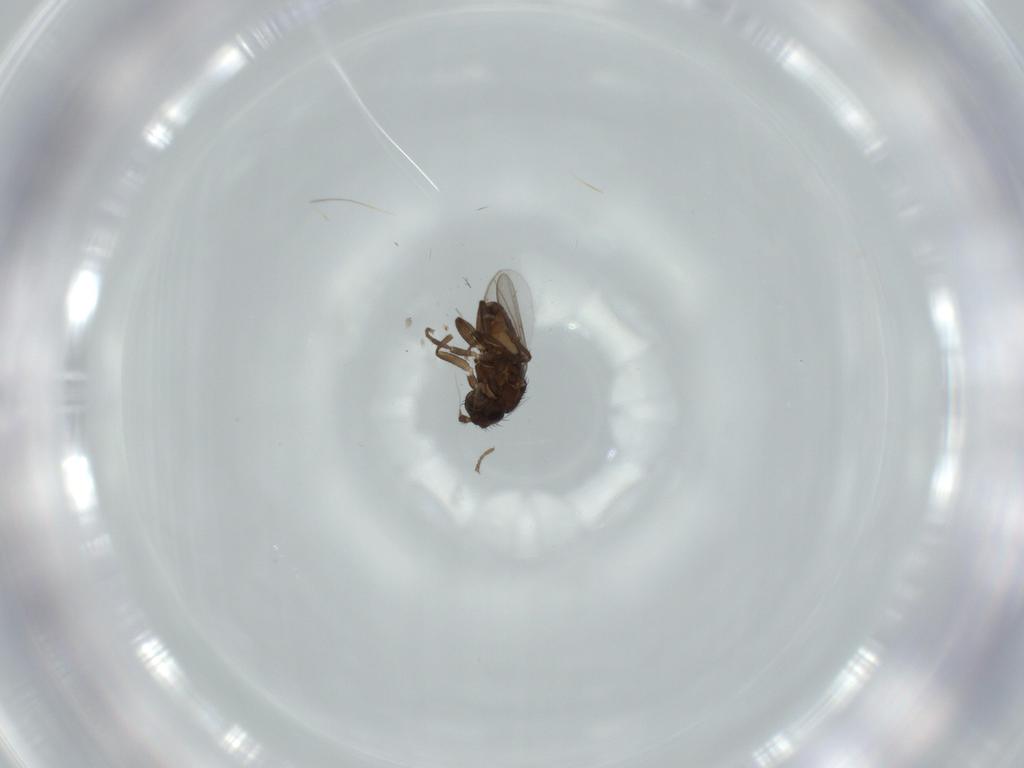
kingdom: Animalia
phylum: Arthropoda
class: Insecta
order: Diptera
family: Sphaeroceridae
